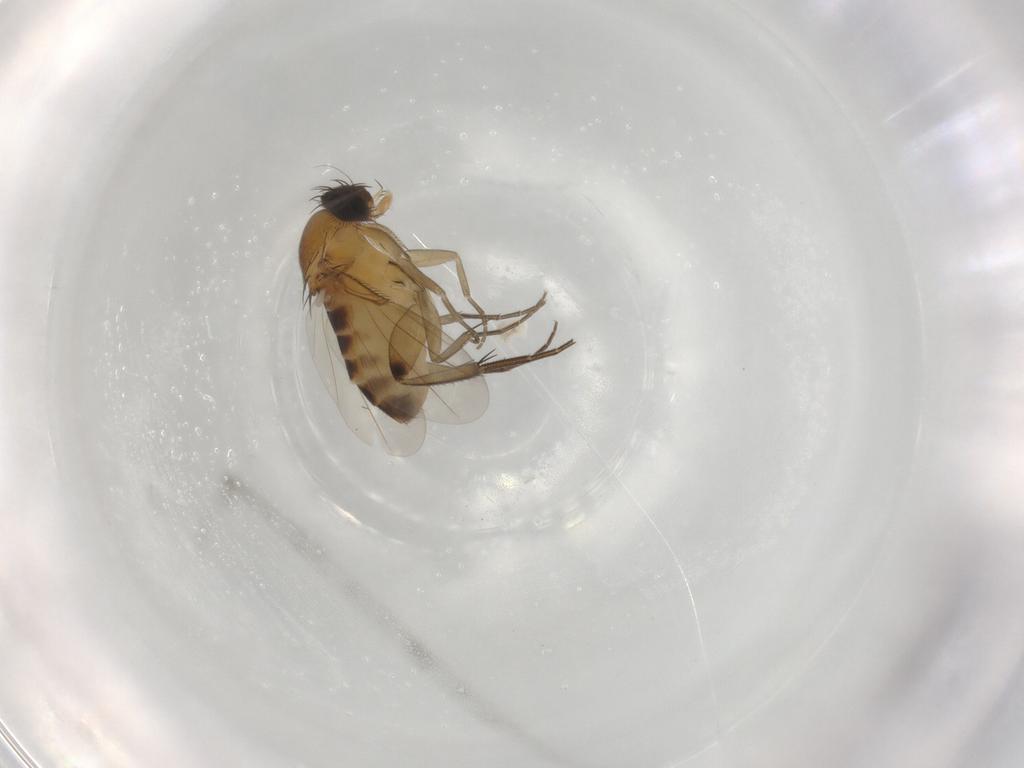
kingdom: Animalia
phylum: Arthropoda
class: Insecta
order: Diptera
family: Phoridae
